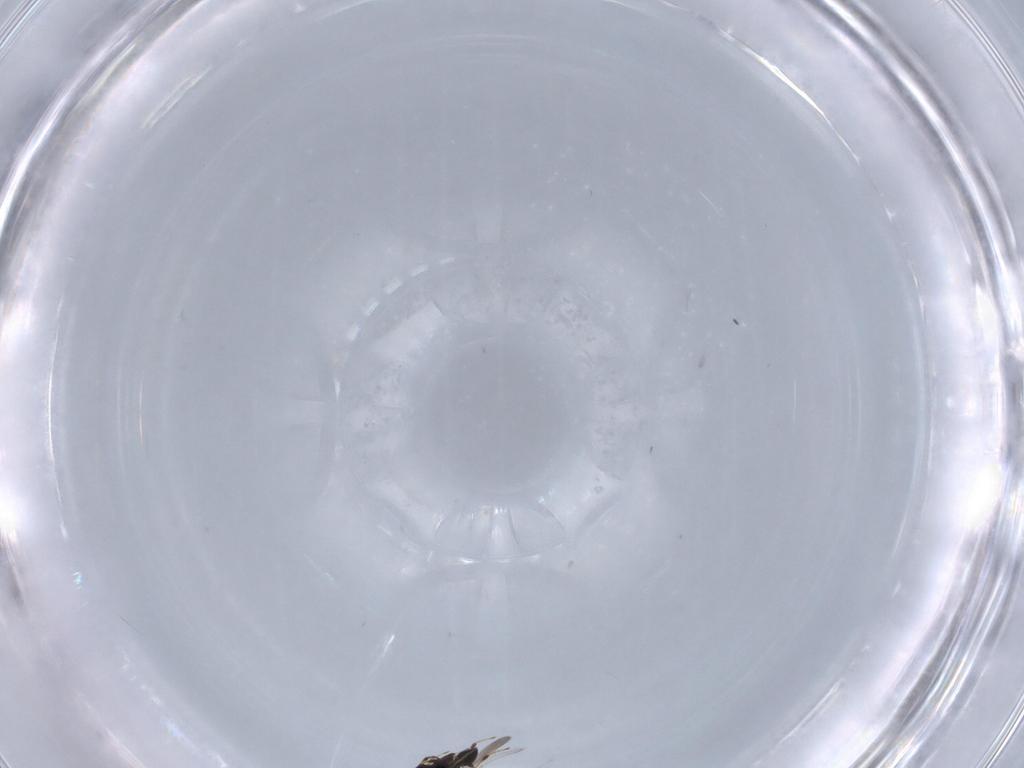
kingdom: Animalia
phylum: Arthropoda
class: Insecta
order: Hymenoptera
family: Platygastridae
